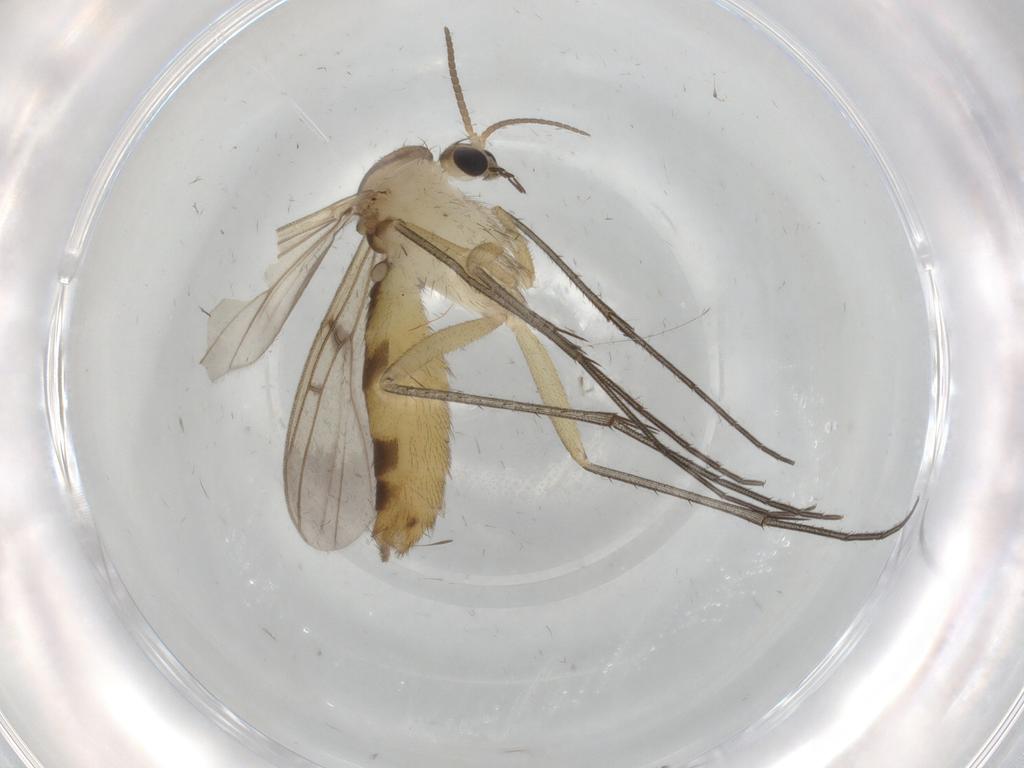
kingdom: Animalia
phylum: Arthropoda
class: Insecta
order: Diptera
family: Mycetophilidae
